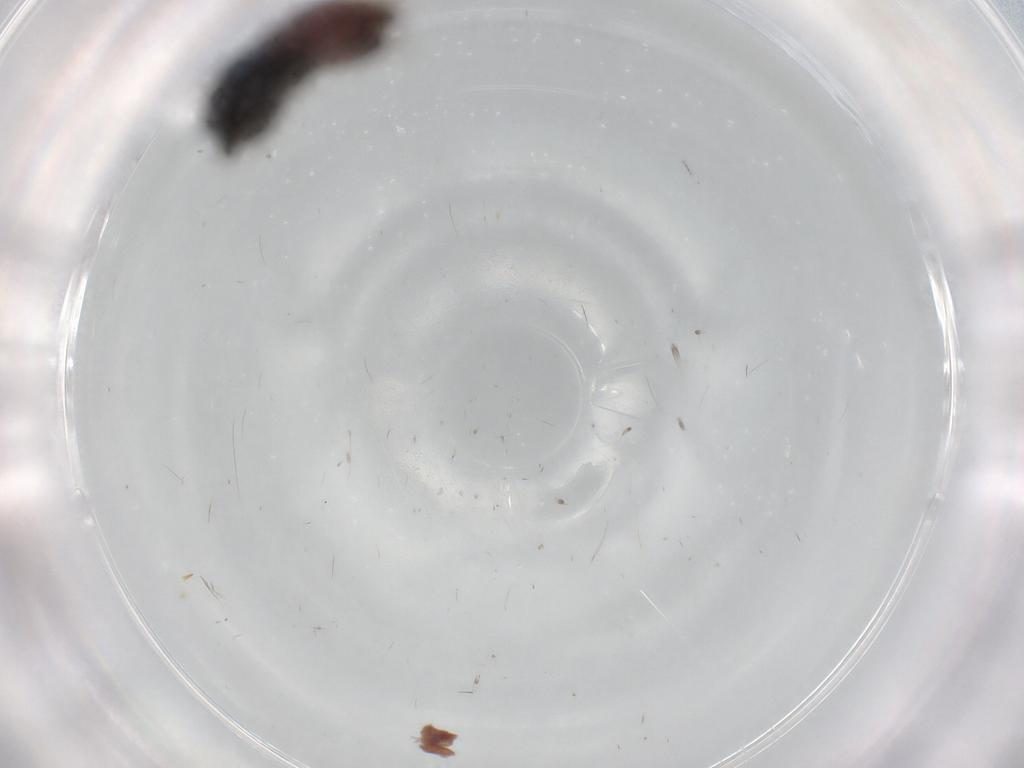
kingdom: Animalia
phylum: Arthropoda
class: Insecta
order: Diptera
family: Sphaeroceridae
